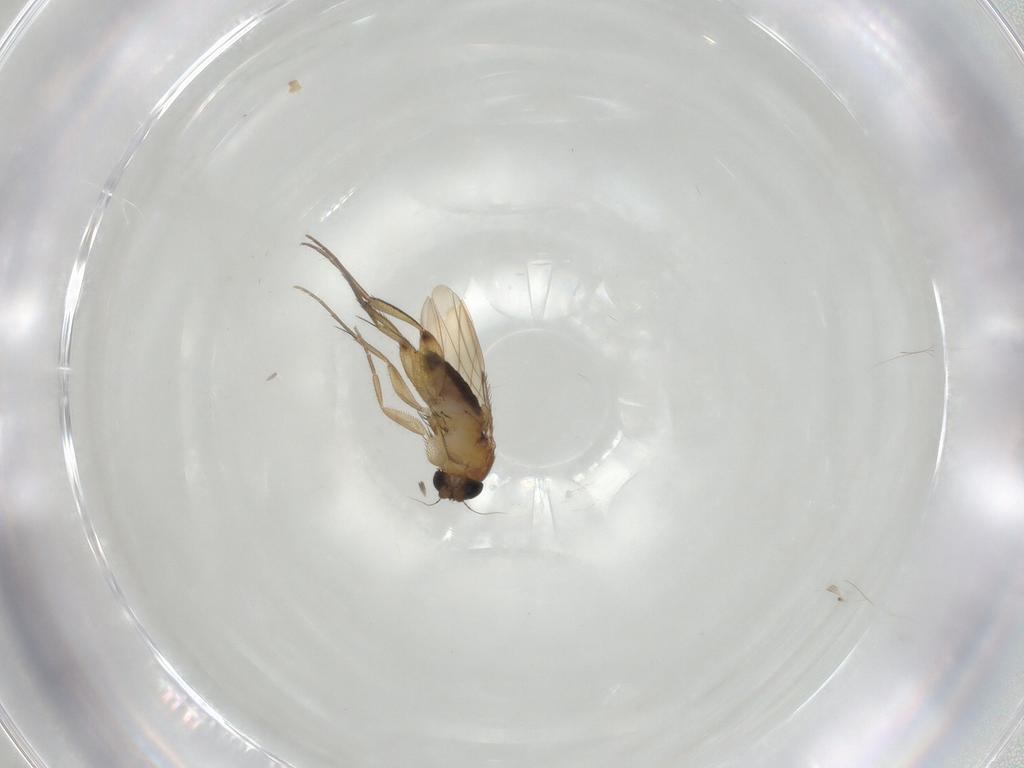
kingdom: Animalia
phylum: Arthropoda
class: Insecta
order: Diptera
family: Phoridae
